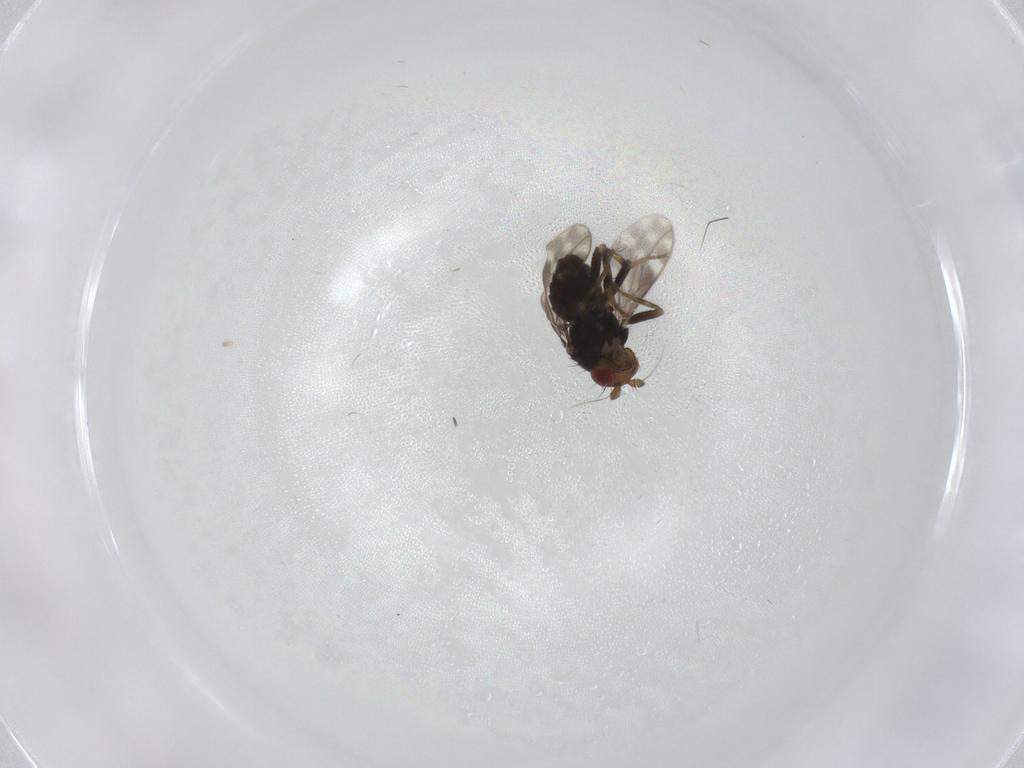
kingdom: Animalia
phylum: Arthropoda
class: Insecta
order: Diptera
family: Sphaeroceridae
